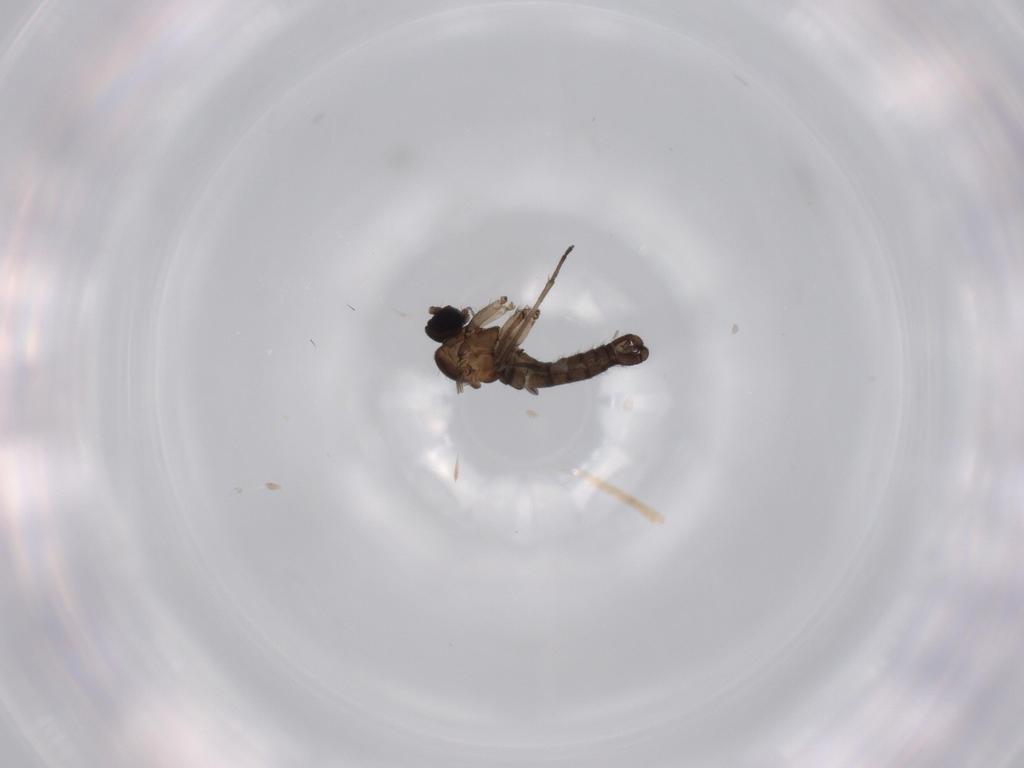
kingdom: Animalia
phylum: Arthropoda
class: Insecta
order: Diptera
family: Sciaridae
